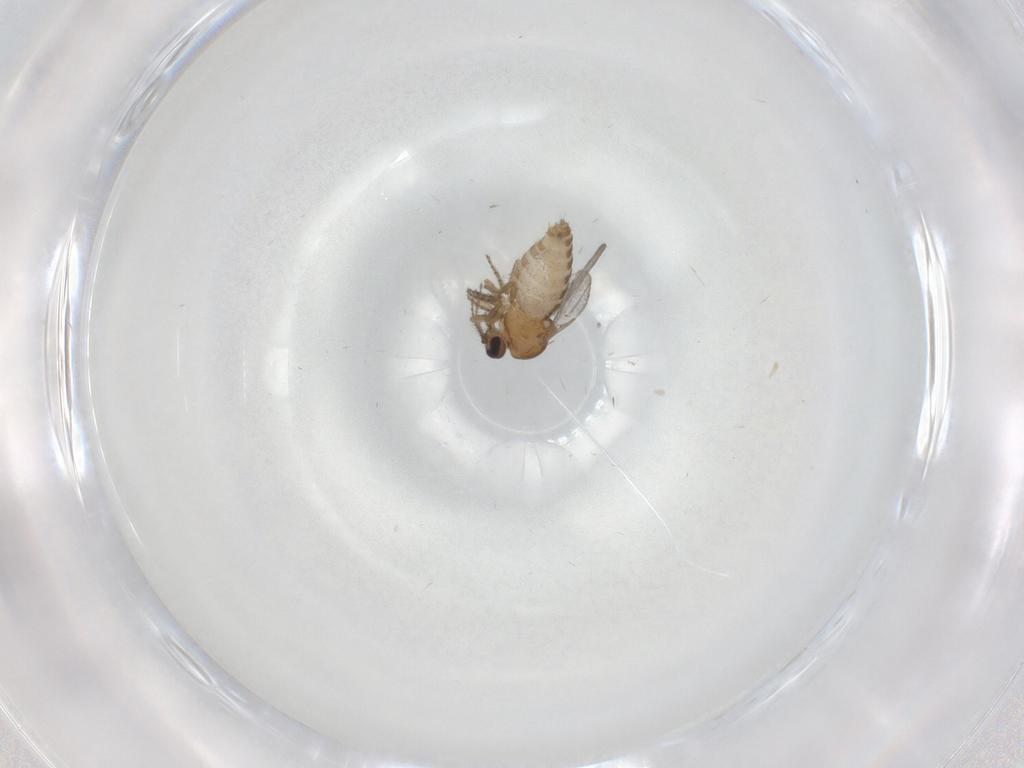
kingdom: Animalia
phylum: Arthropoda
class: Insecta
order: Diptera
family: Ceratopogonidae
